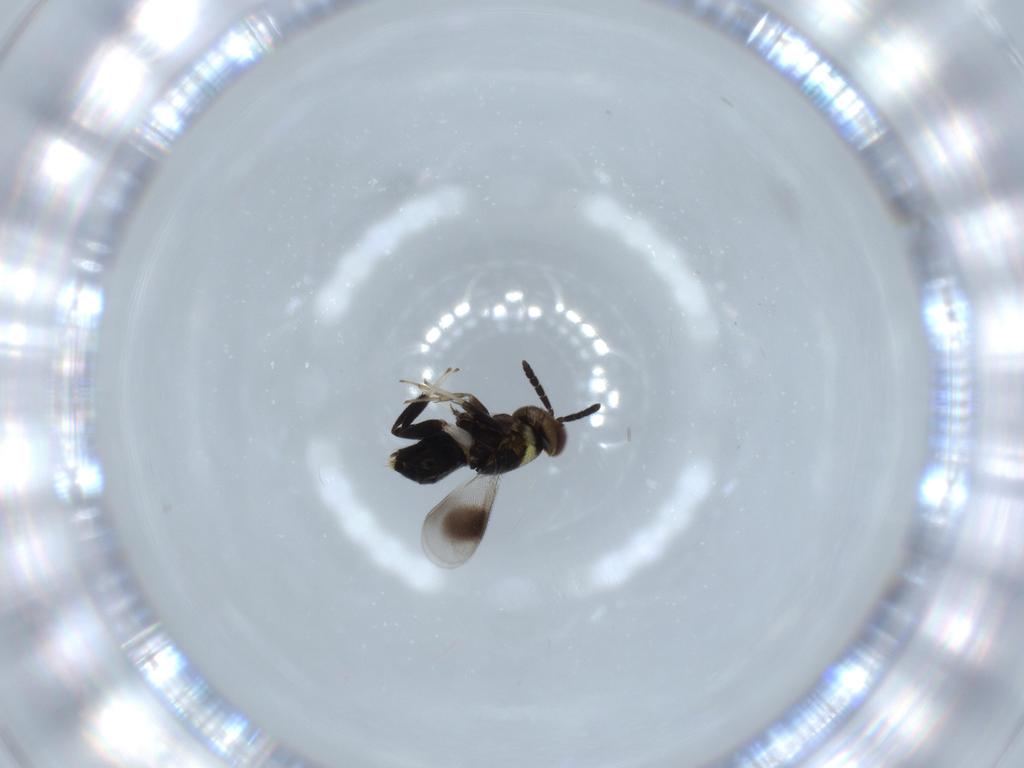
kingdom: Animalia
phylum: Arthropoda
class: Insecta
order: Hymenoptera
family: Aphelinidae
